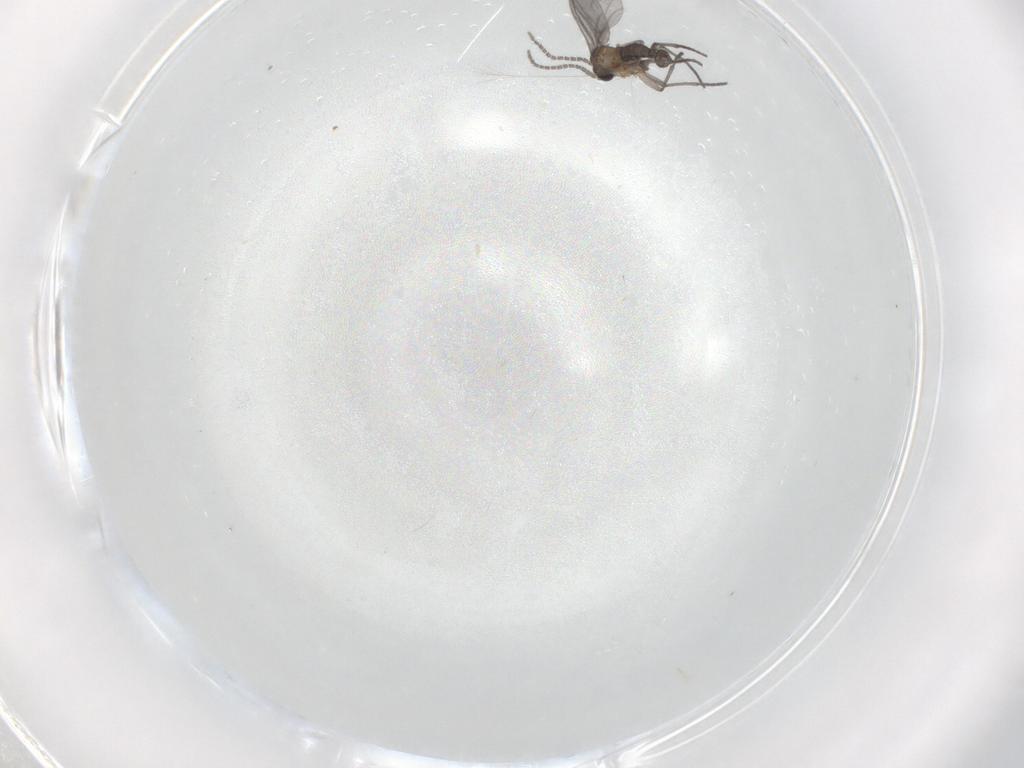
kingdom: Animalia
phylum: Arthropoda
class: Insecta
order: Diptera
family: Sciaridae
